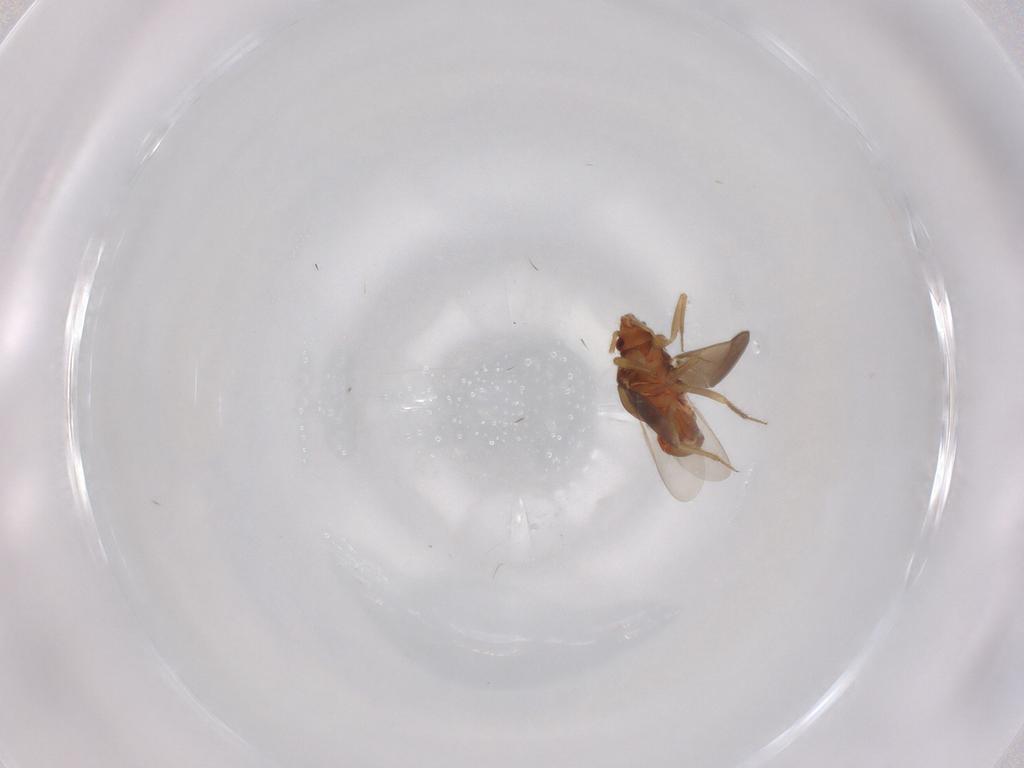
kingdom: Animalia
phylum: Arthropoda
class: Insecta
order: Hemiptera
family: Ceratocombidae
